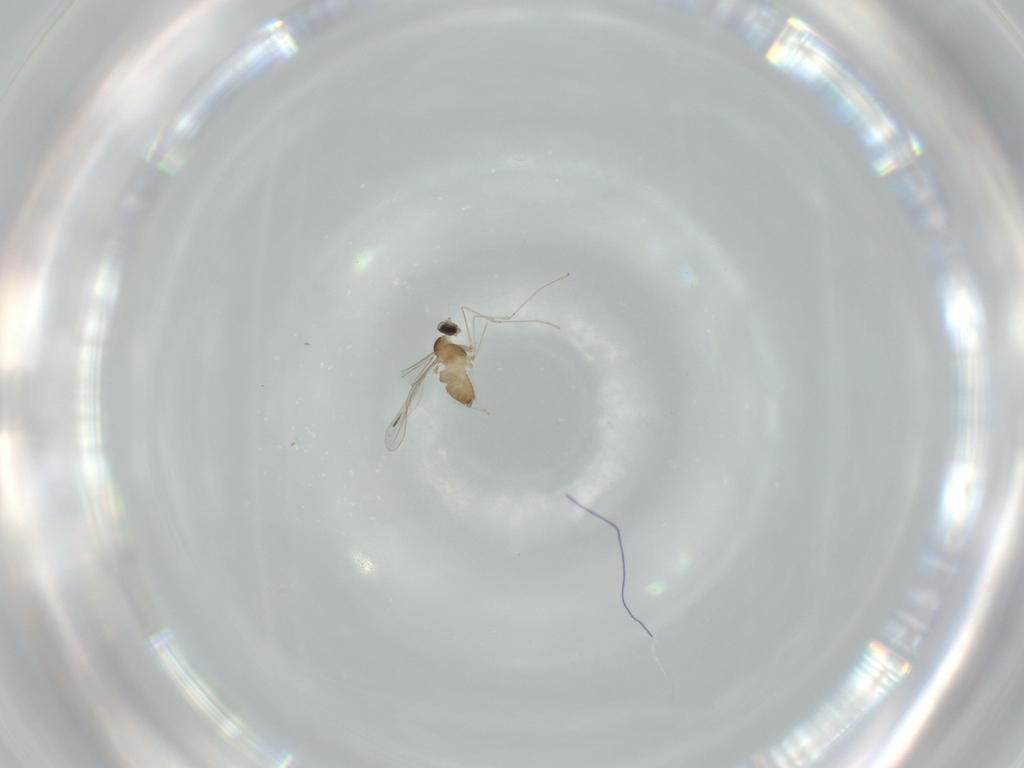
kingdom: Animalia
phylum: Arthropoda
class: Insecta
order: Diptera
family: Cecidomyiidae
